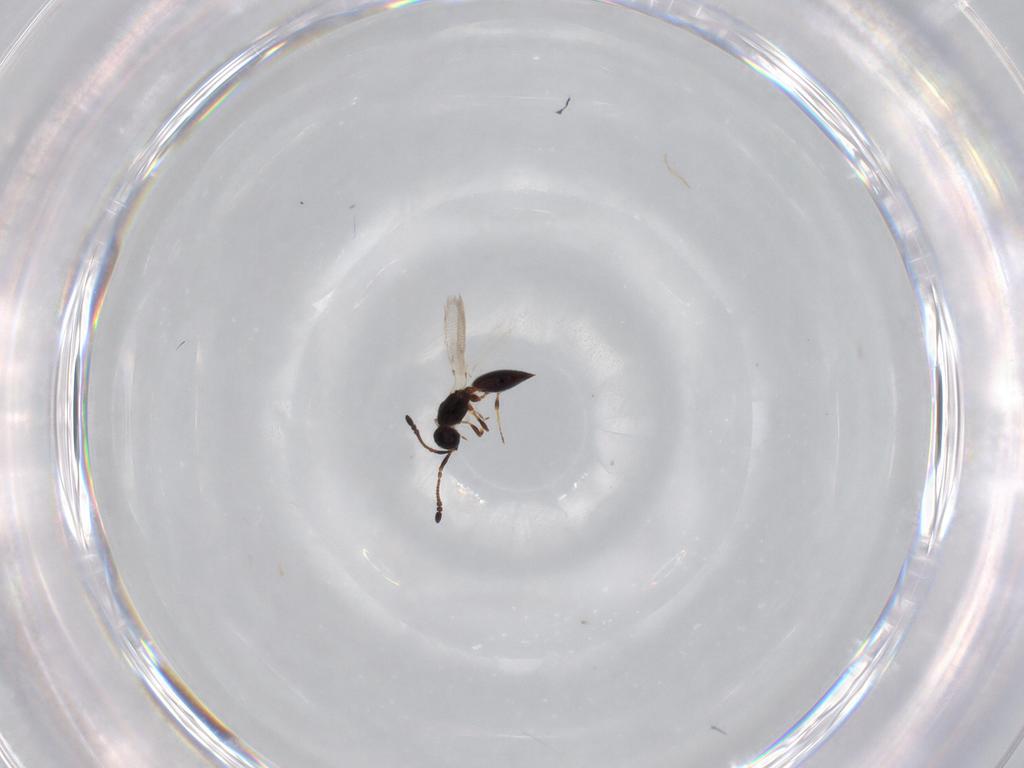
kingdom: Animalia
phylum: Arthropoda
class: Insecta
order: Hymenoptera
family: Diapriidae
